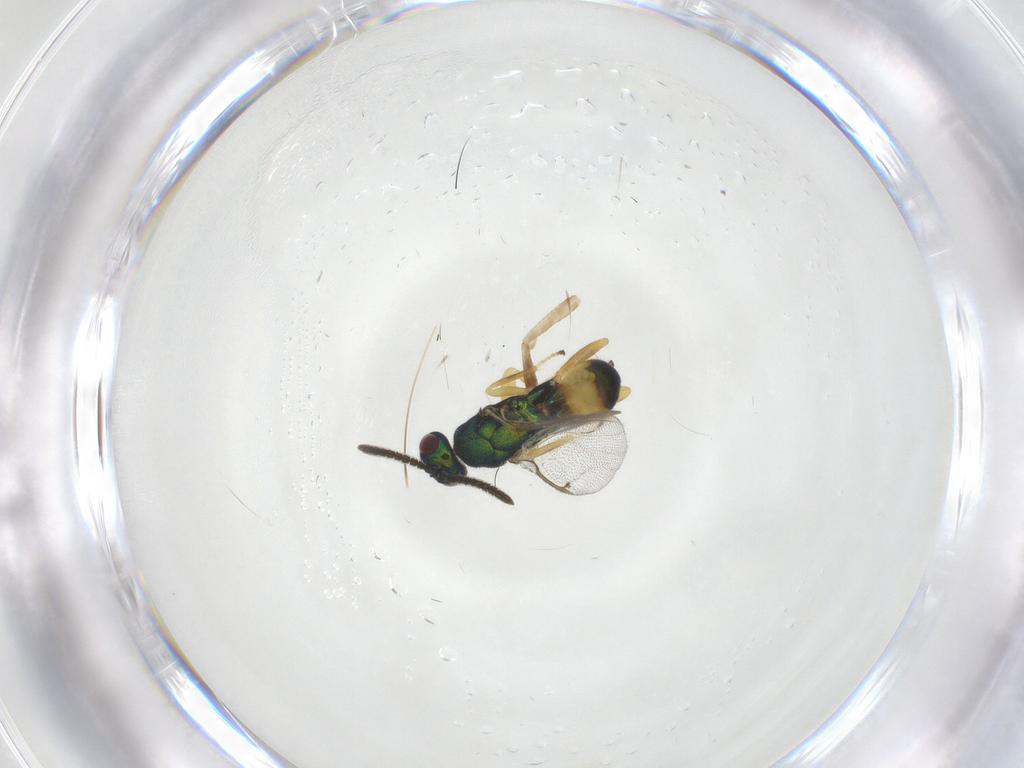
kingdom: Animalia
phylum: Arthropoda
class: Insecta
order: Hymenoptera
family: Torymidae
